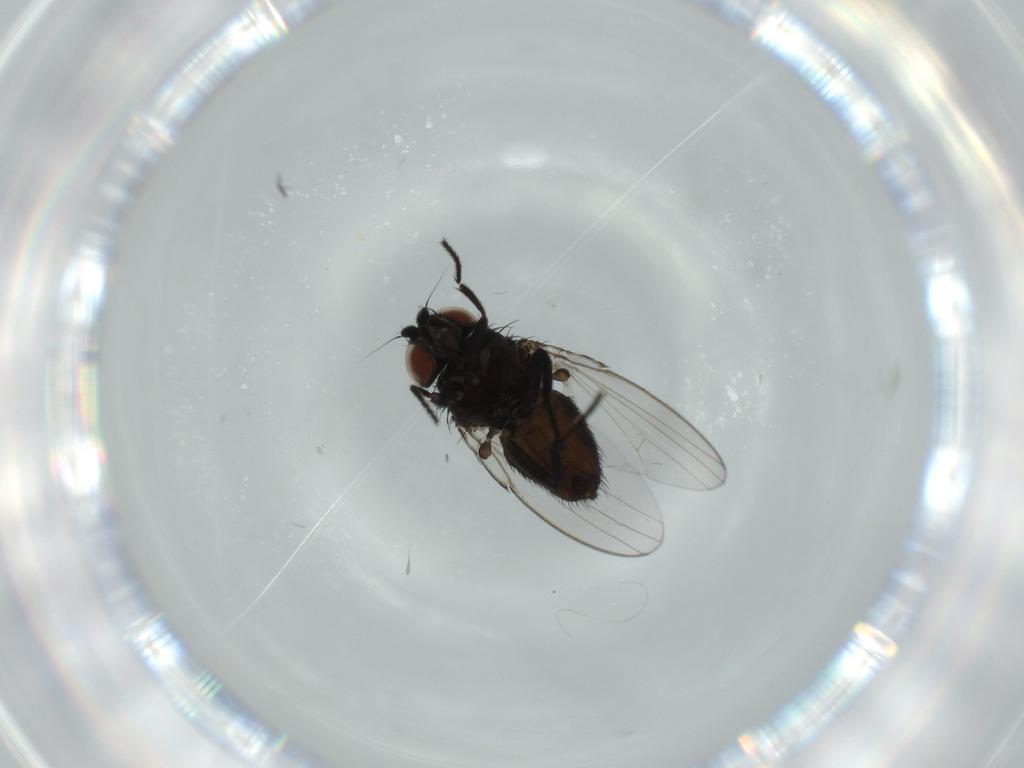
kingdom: Animalia
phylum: Arthropoda
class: Insecta
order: Diptera
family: Milichiidae
